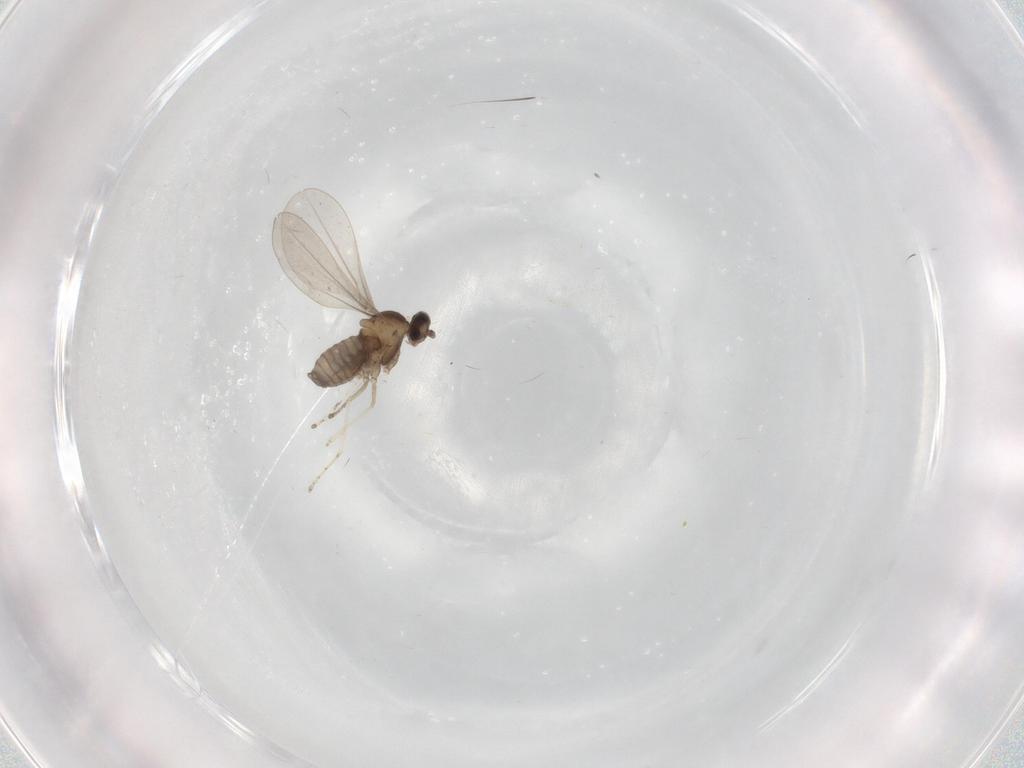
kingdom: Animalia
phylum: Arthropoda
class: Insecta
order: Diptera
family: Cecidomyiidae
